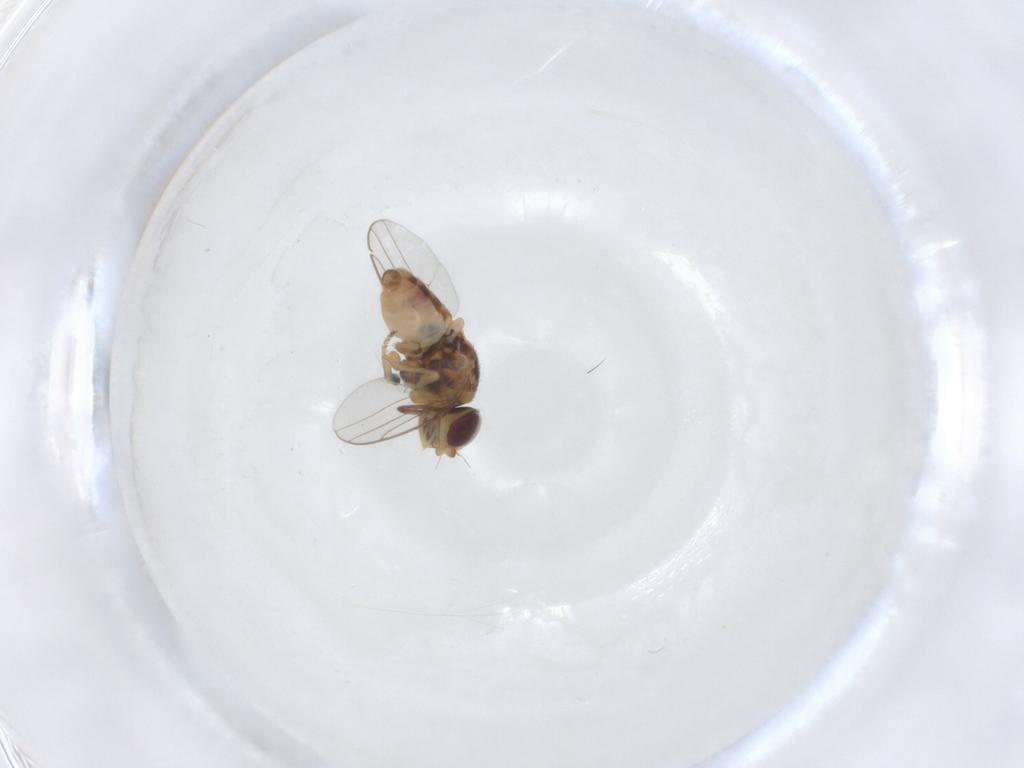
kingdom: Animalia
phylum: Arthropoda
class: Insecta
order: Diptera
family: Chloropidae
